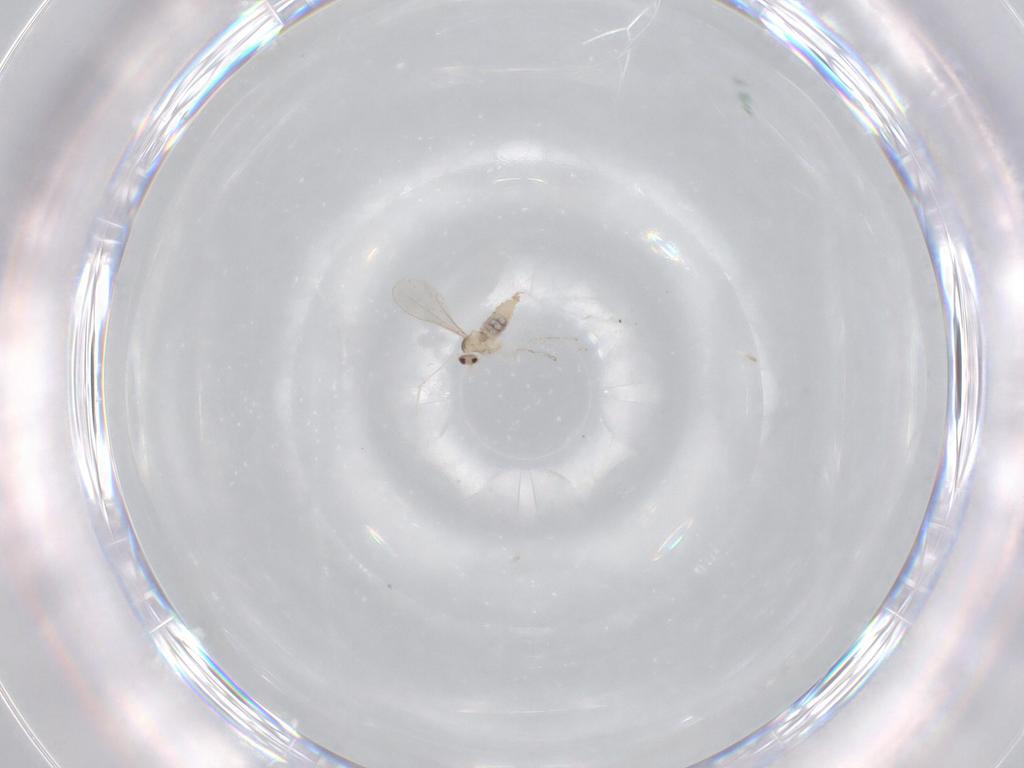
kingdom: Animalia
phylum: Arthropoda
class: Insecta
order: Diptera
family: Cecidomyiidae
